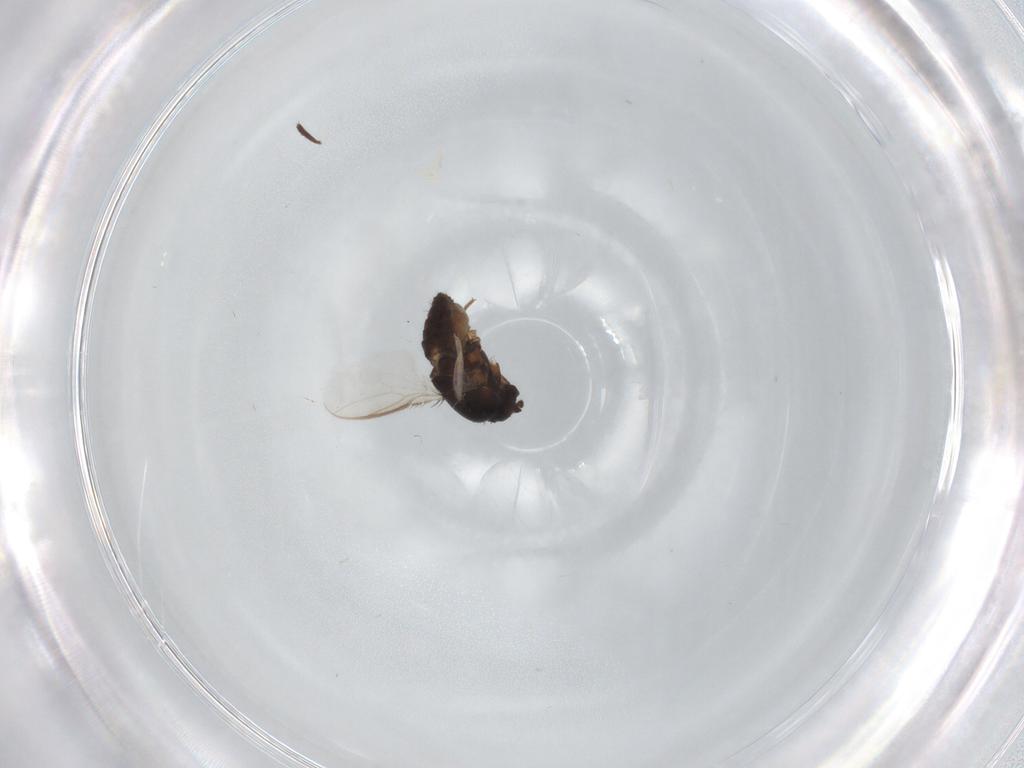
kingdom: Animalia
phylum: Arthropoda
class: Insecta
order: Diptera
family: Sphaeroceridae
